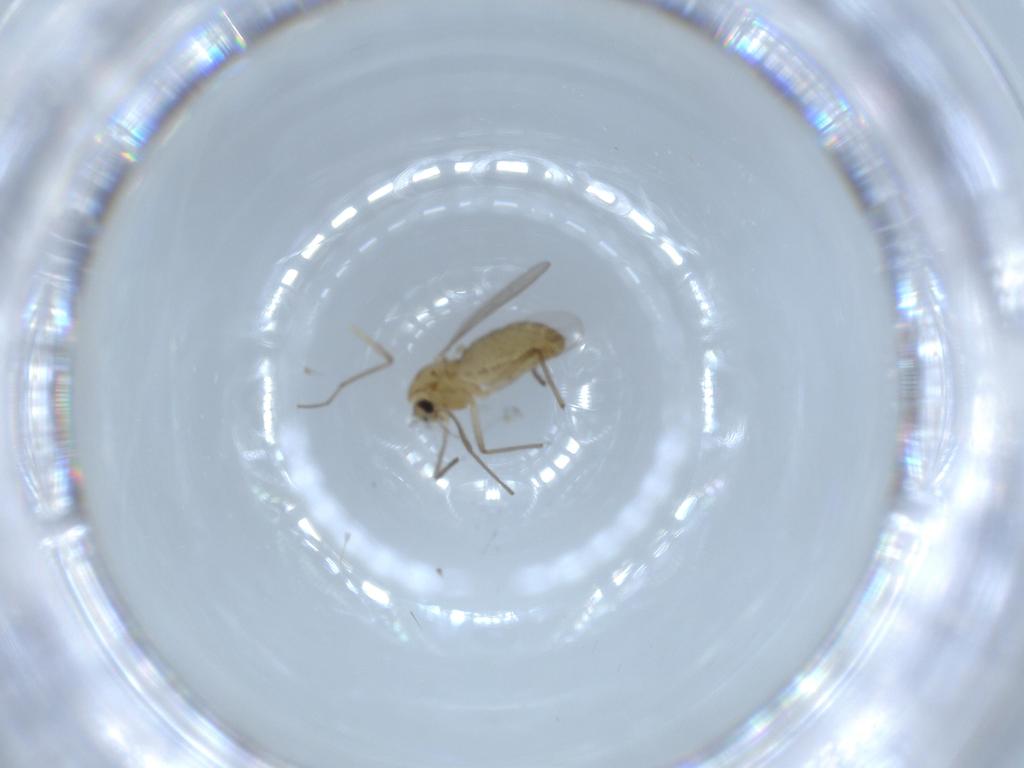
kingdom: Animalia
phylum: Arthropoda
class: Insecta
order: Diptera
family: Chironomidae
